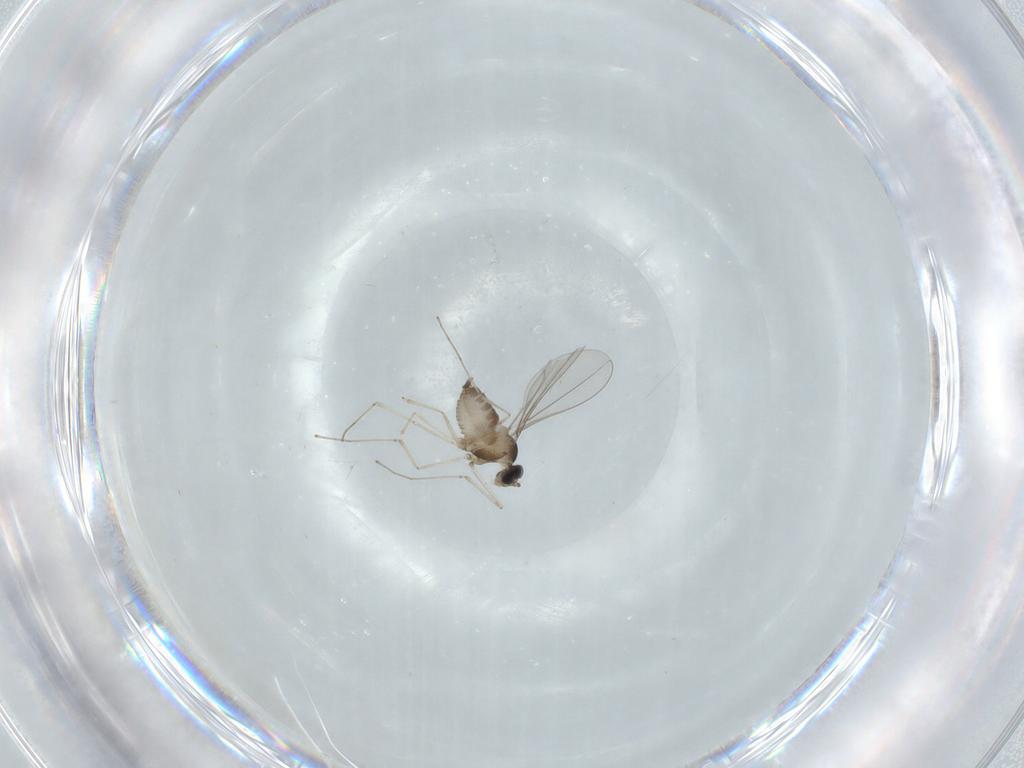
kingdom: Animalia
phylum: Arthropoda
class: Insecta
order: Diptera
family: Cecidomyiidae
